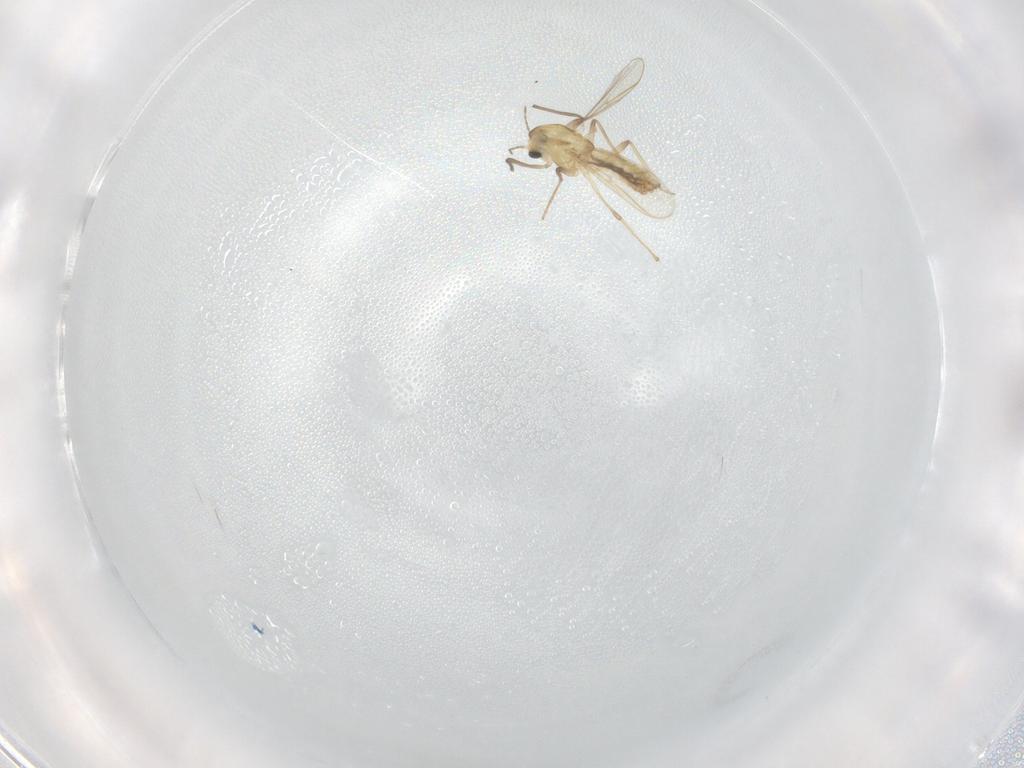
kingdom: Animalia
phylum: Arthropoda
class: Insecta
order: Diptera
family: Chironomidae
